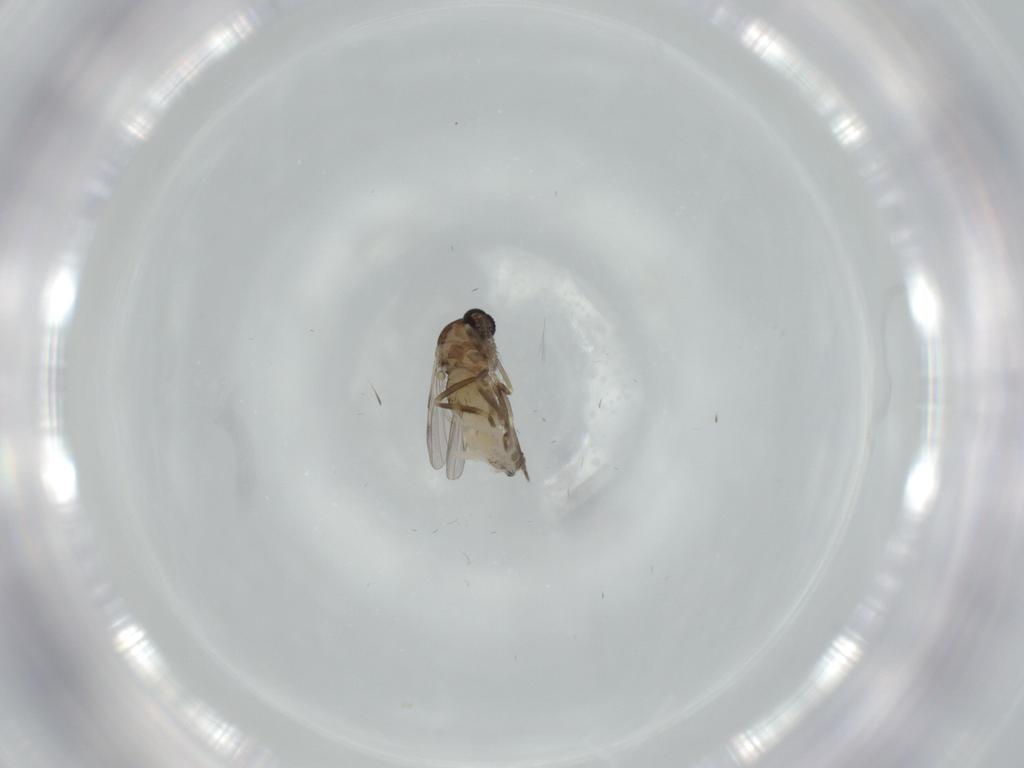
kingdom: Animalia
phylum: Arthropoda
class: Insecta
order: Diptera
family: Ceratopogonidae
